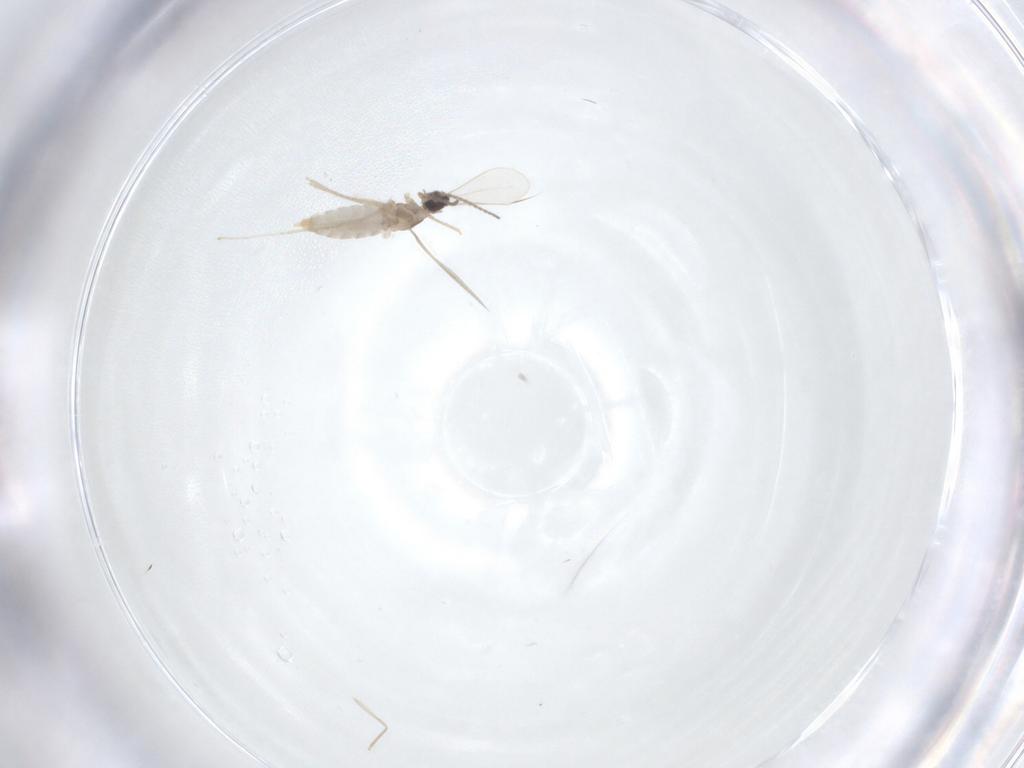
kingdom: Animalia
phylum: Arthropoda
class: Insecta
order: Diptera
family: Cecidomyiidae
